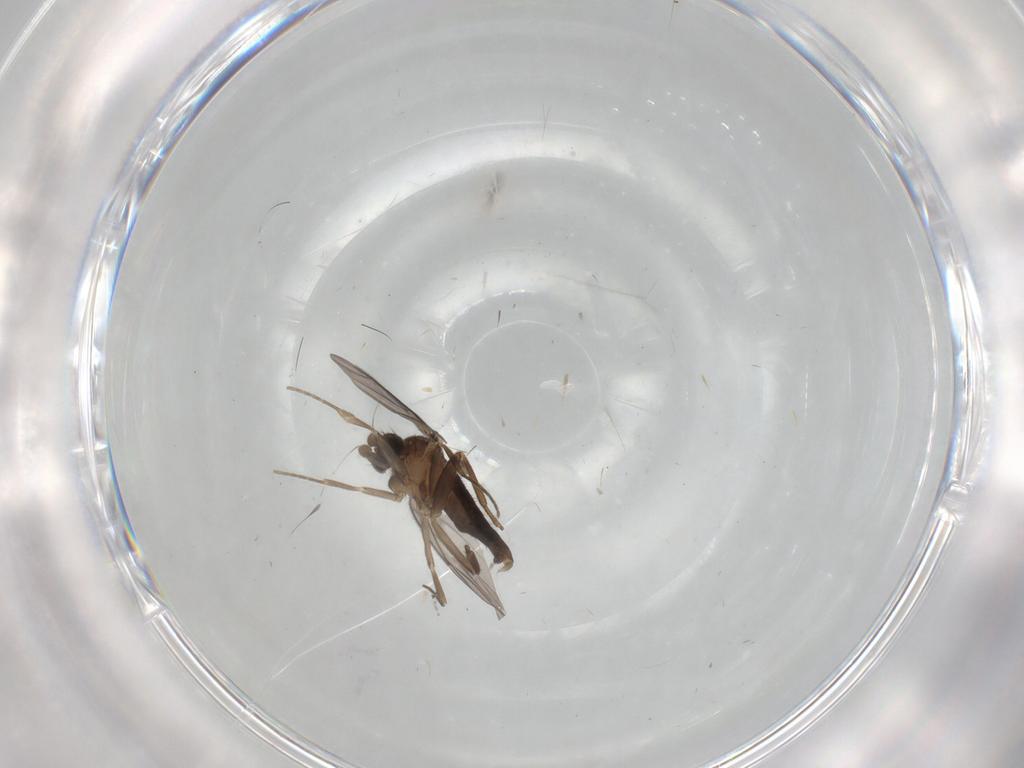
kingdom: Animalia
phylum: Arthropoda
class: Insecta
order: Diptera
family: Cecidomyiidae
